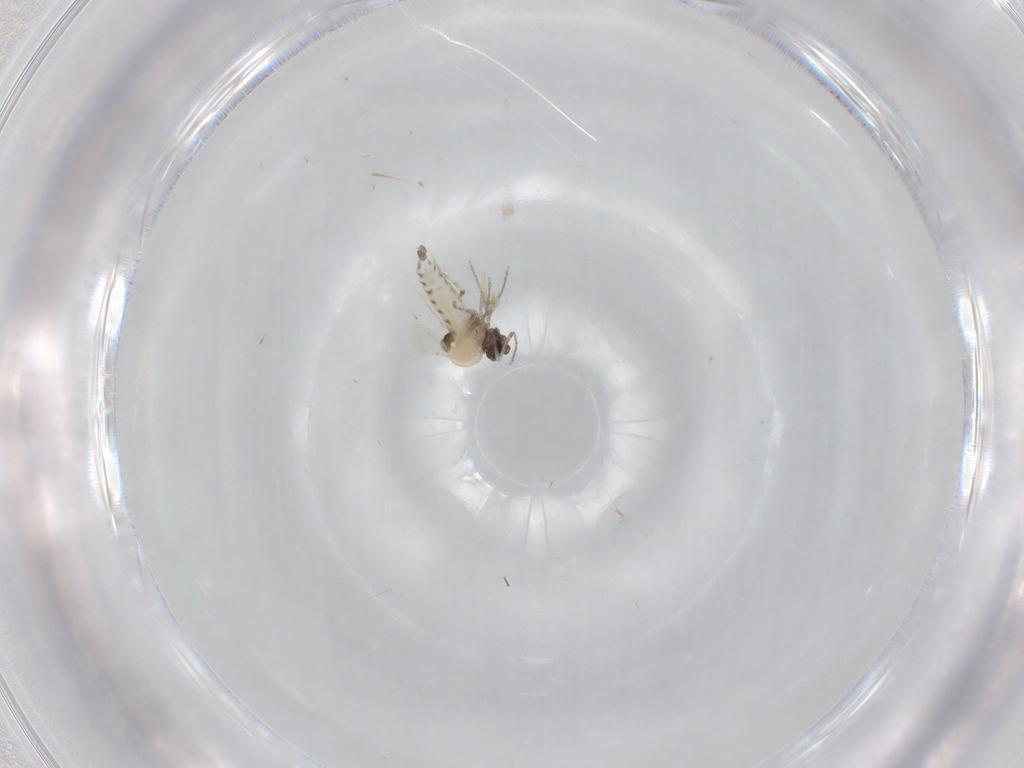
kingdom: Animalia
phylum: Arthropoda
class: Insecta
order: Diptera
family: Ceratopogonidae
